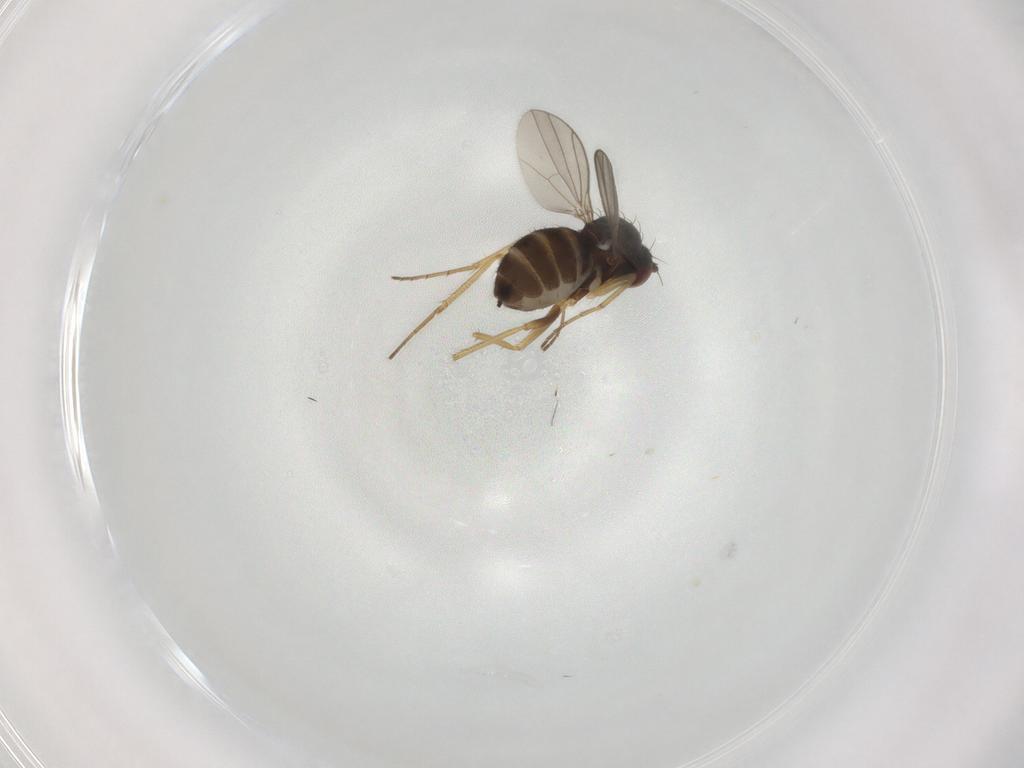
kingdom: Animalia
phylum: Arthropoda
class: Insecta
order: Diptera
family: Dolichopodidae
